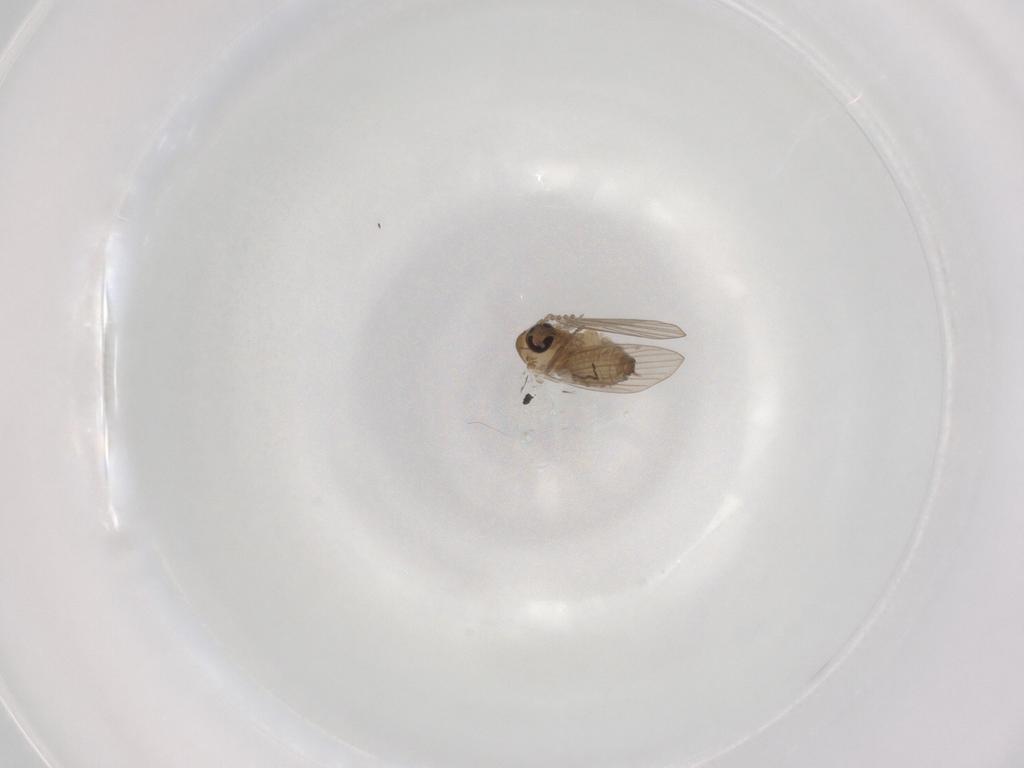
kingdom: Animalia
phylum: Arthropoda
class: Insecta
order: Diptera
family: Psychodidae
